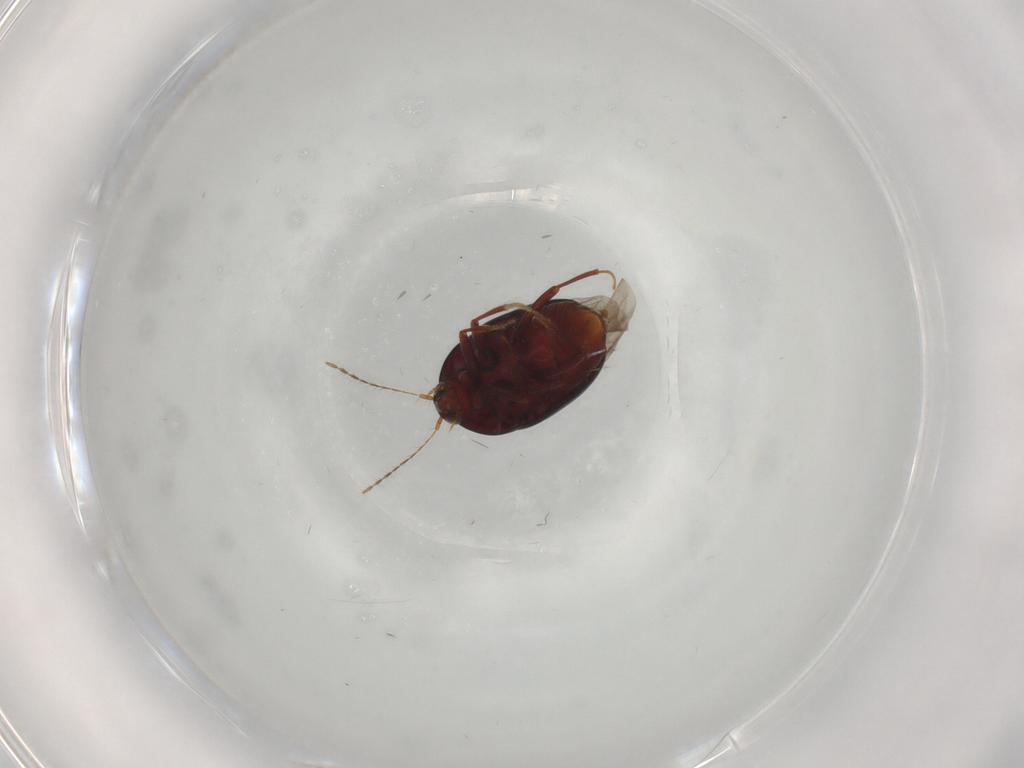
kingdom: Animalia
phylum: Arthropoda
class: Insecta
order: Coleoptera
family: Staphylinidae
